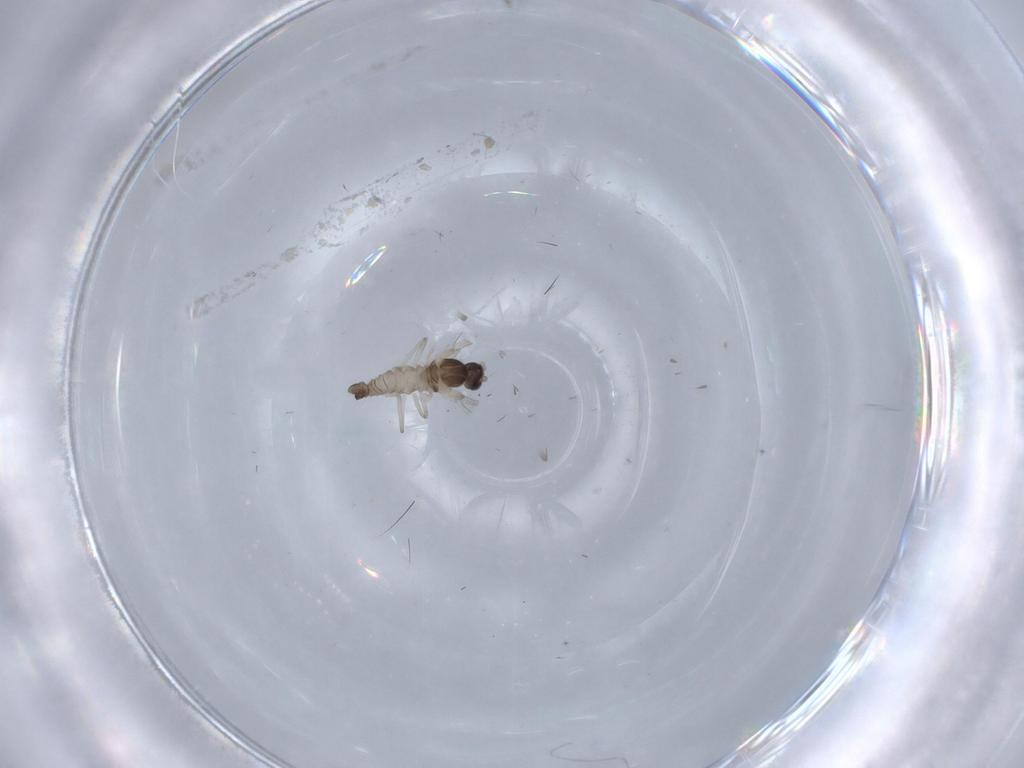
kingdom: Animalia
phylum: Arthropoda
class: Insecta
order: Diptera
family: Cecidomyiidae
